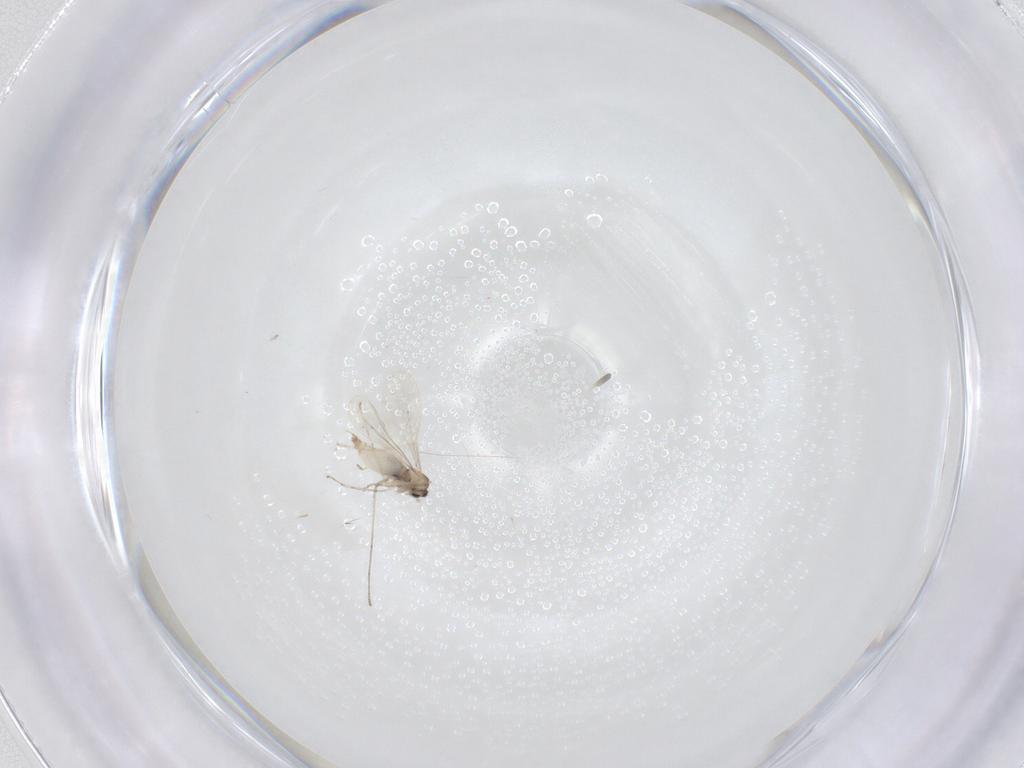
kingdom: Animalia
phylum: Arthropoda
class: Insecta
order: Diptera
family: Cecidomyiidae
